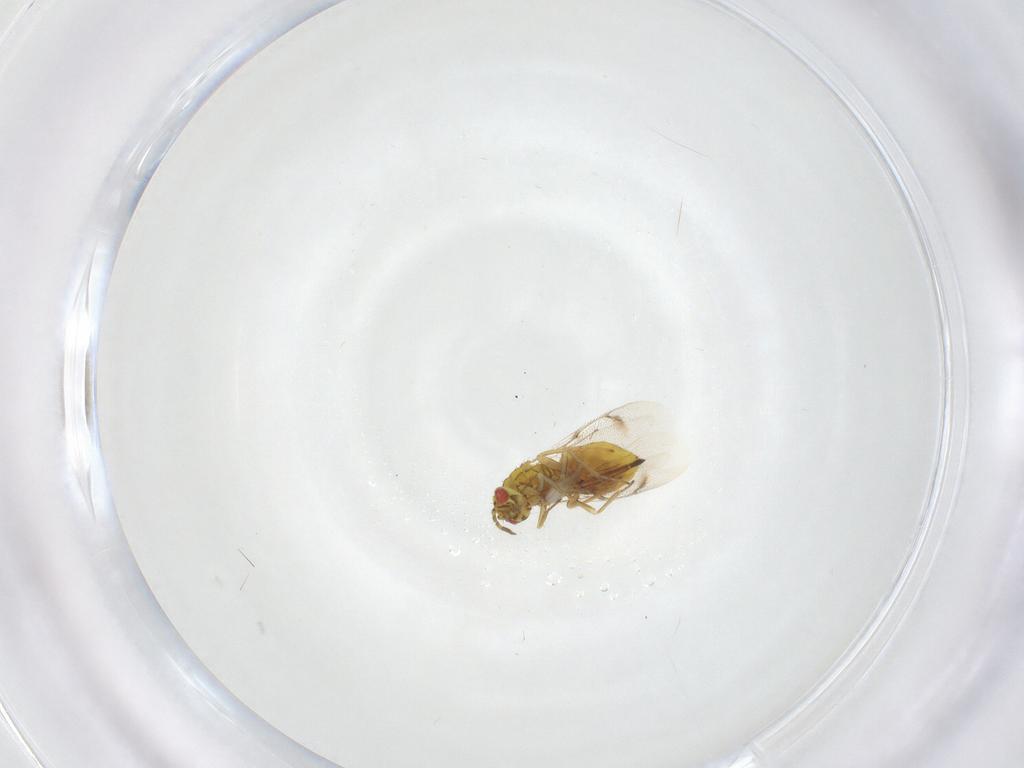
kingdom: Animalia
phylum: Arthropoda
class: Insecta
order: Hymenoptera
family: Eulophidae
